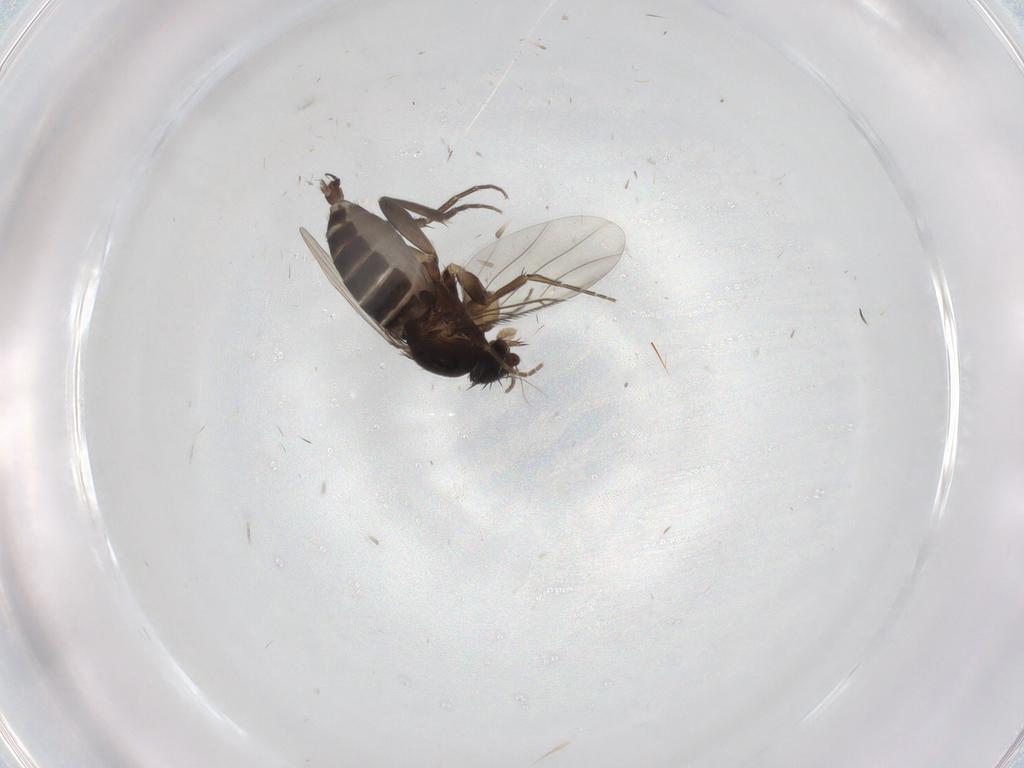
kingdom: Animalia
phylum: Arthropoda
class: Insecta
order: Diptera
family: Phoridae
